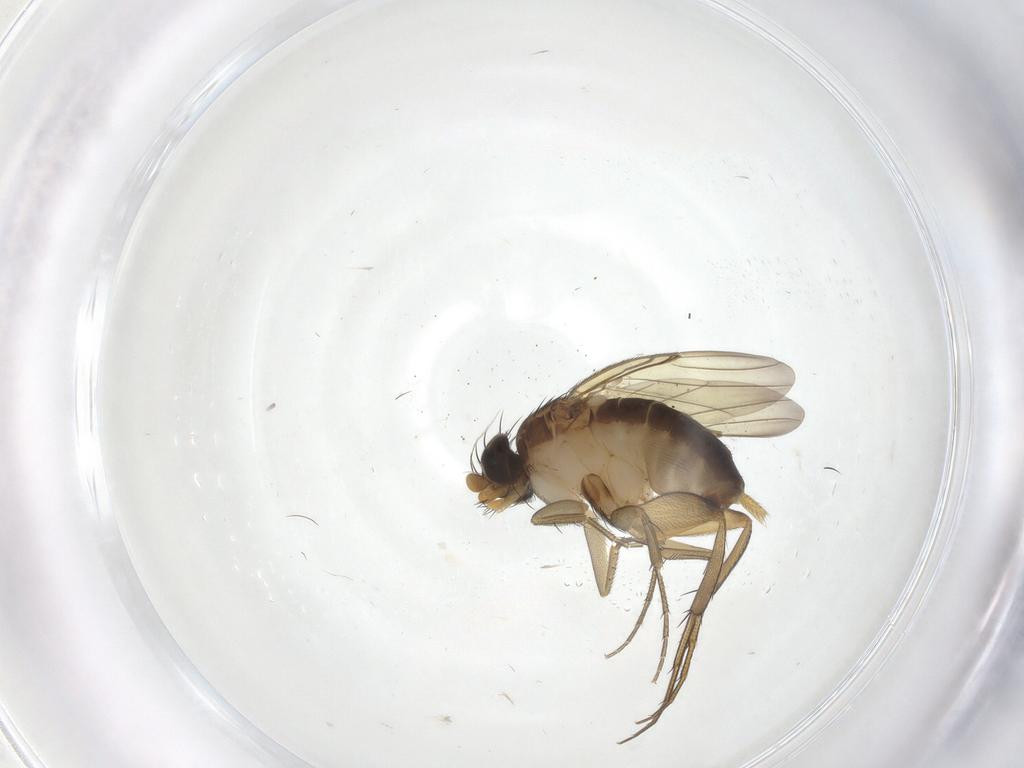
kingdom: Animalia
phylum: Arthropoda
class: Insecta
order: Diptera
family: Phoridae
